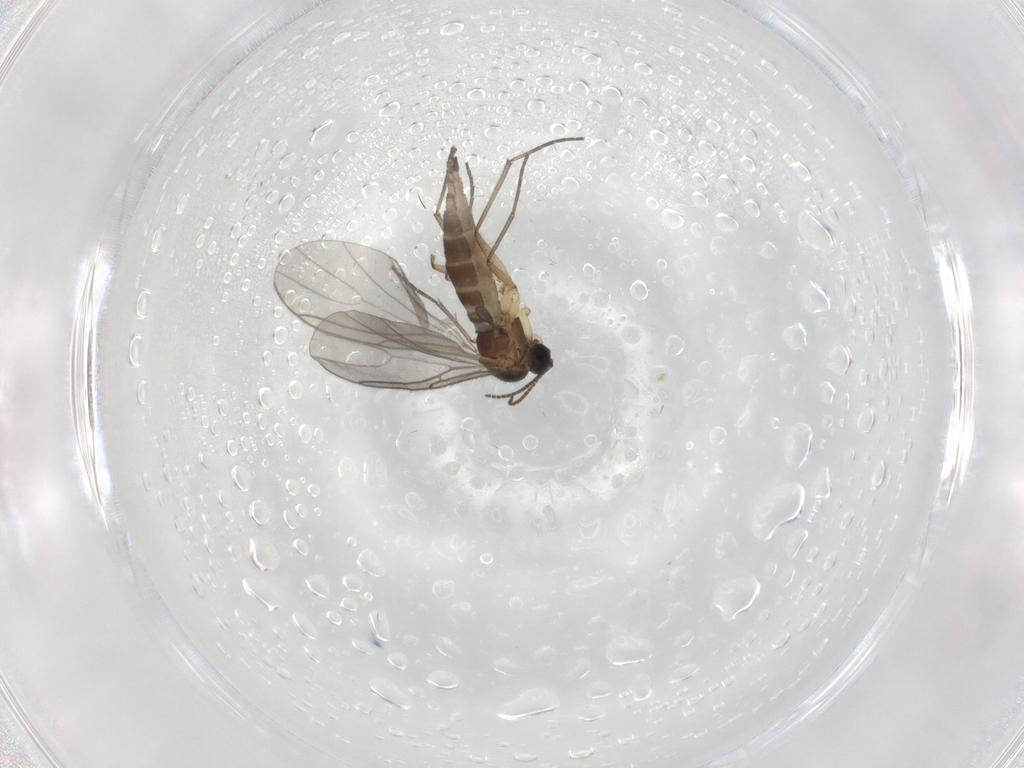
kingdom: Animalia
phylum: Arthropoda
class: Insecta
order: Diptera
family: Sciaridae
